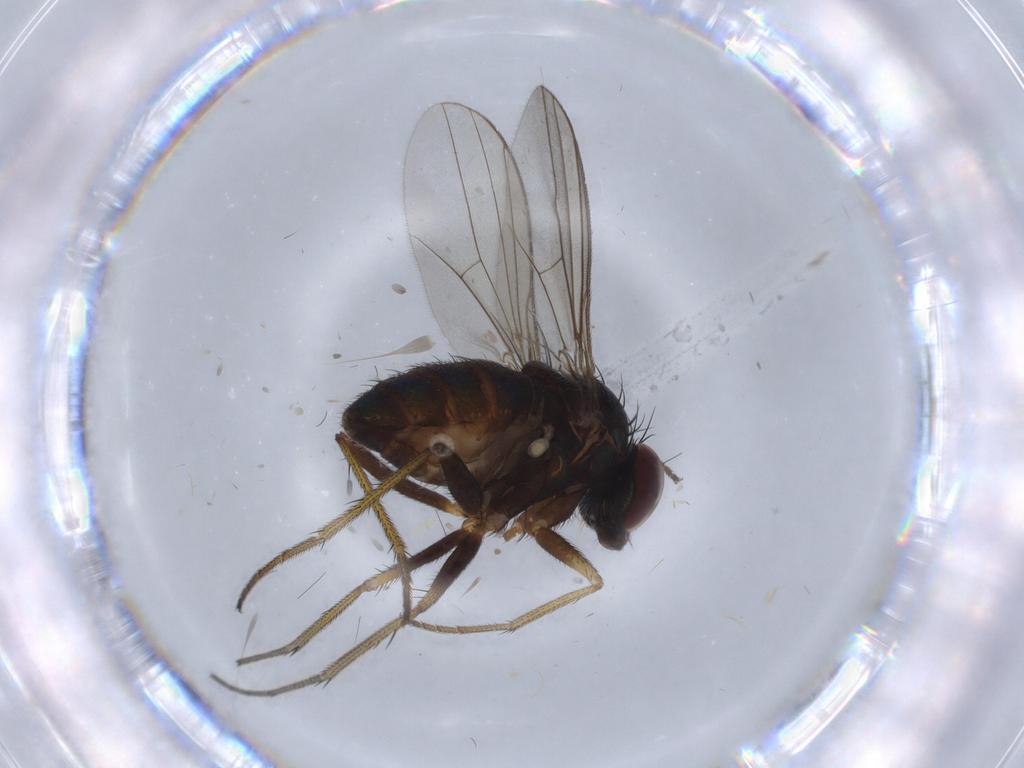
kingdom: Animalia
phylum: Arthropoda
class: Insecta
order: Diptera
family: Dolichopodidae
